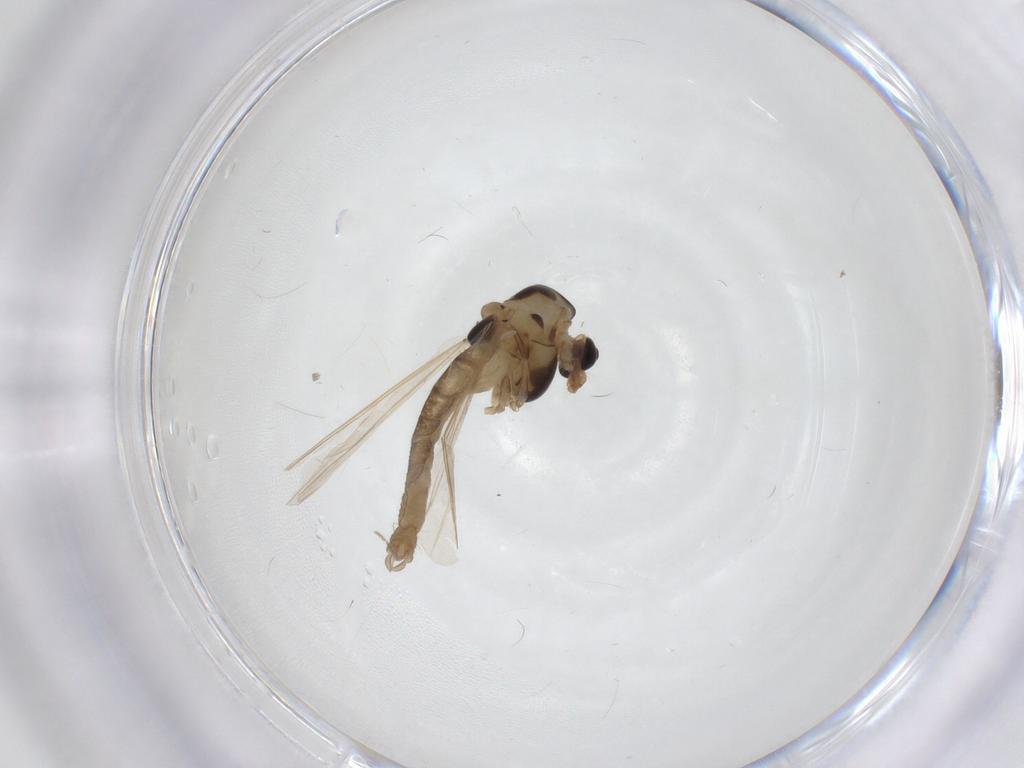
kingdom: Animalia
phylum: Arthropoda
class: Insecta
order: Diptera
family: Chironomidae
